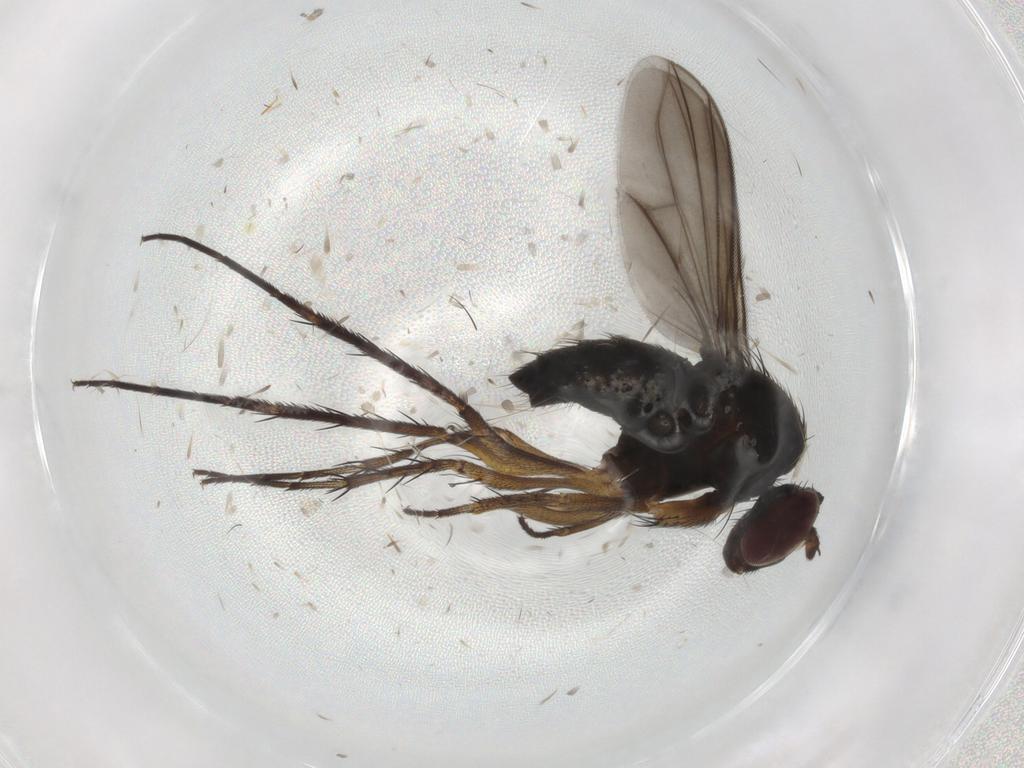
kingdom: Animalia
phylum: Arthropoda
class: Insecta
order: Diptera
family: Dolichopodidae
